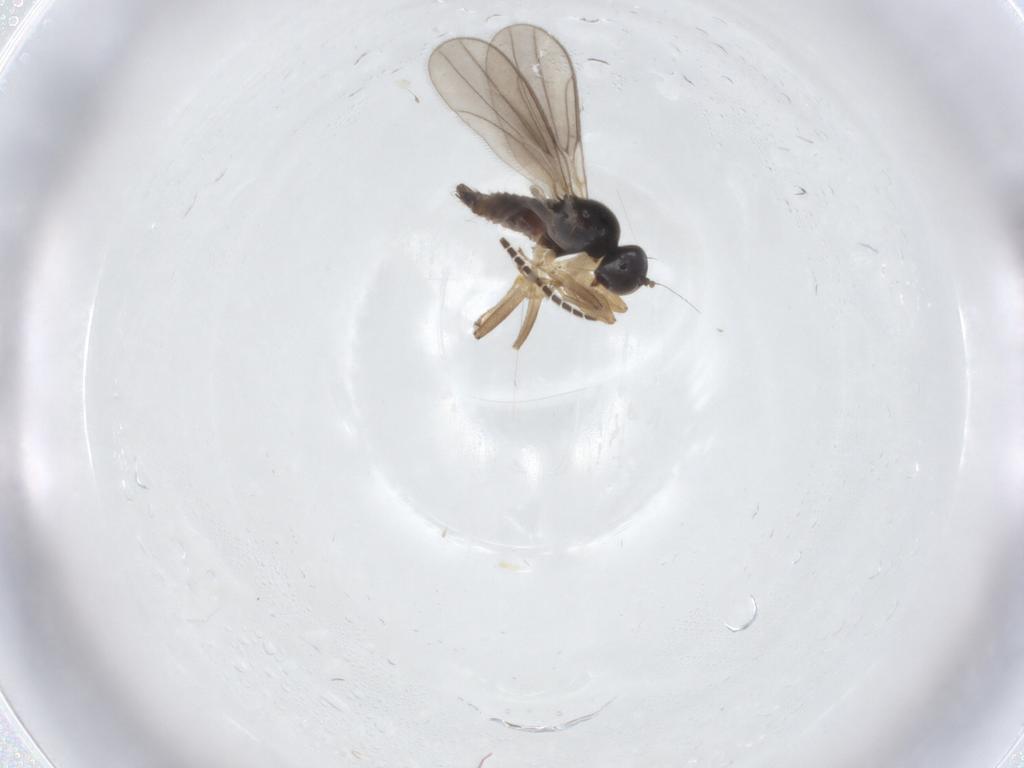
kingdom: Animalia
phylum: Arthropoda
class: Insecta
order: Diptera
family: Hybotidae
